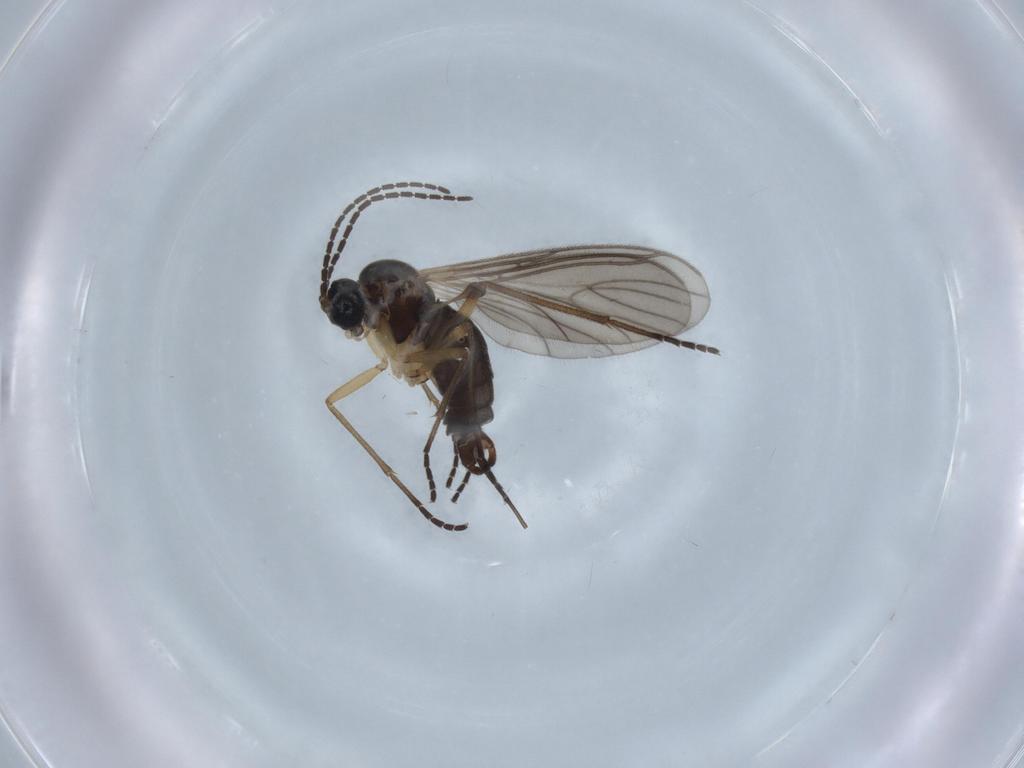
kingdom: Animalia
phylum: Arthropoda
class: Insecta
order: Diptera
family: Sciaridae
